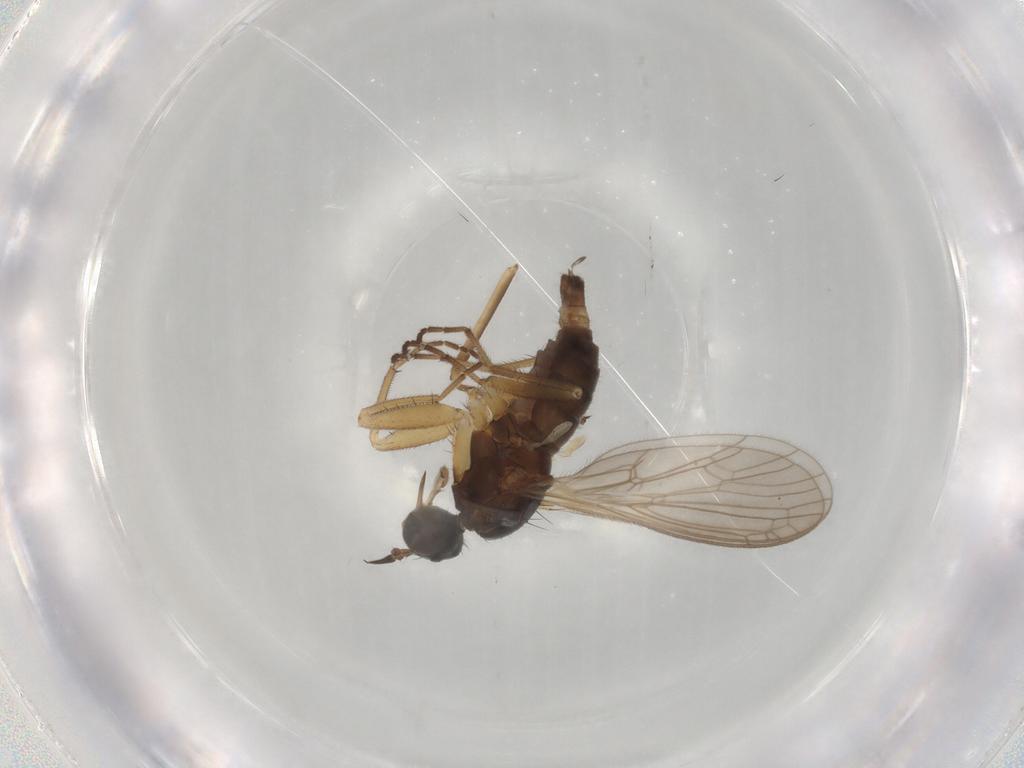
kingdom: Animalia
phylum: Arthropoda
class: Insecta
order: Diptera
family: Empididae
